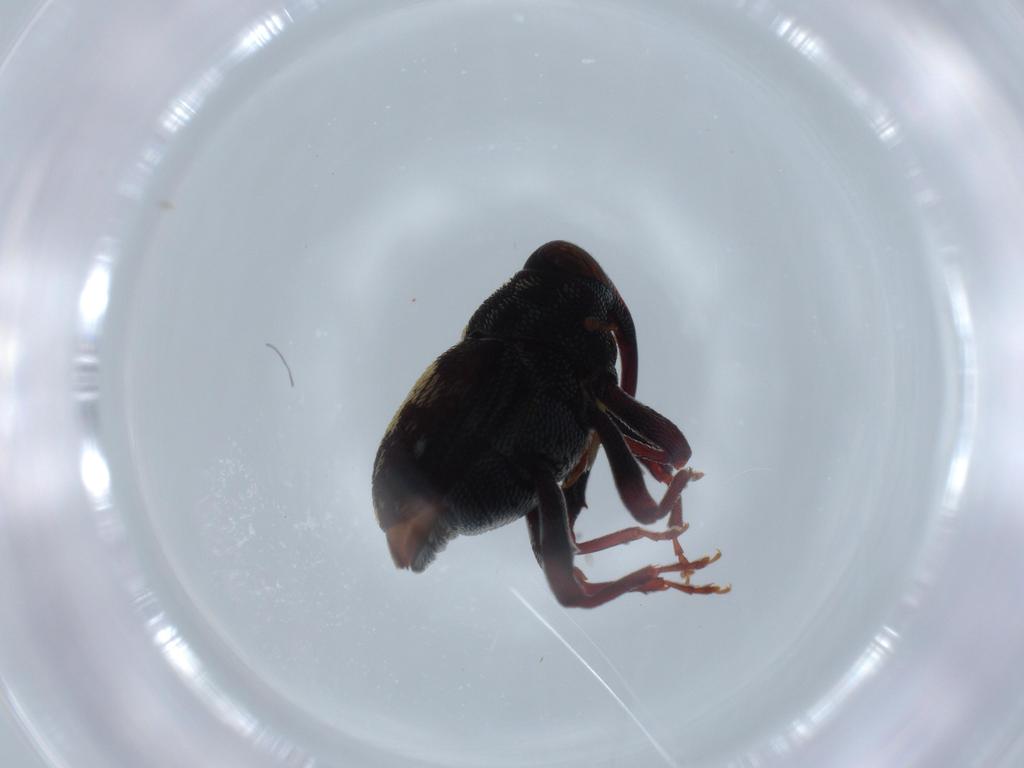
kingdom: Animalia
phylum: Arthropoda
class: Insecta
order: Coleoptera
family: Curculionidae
